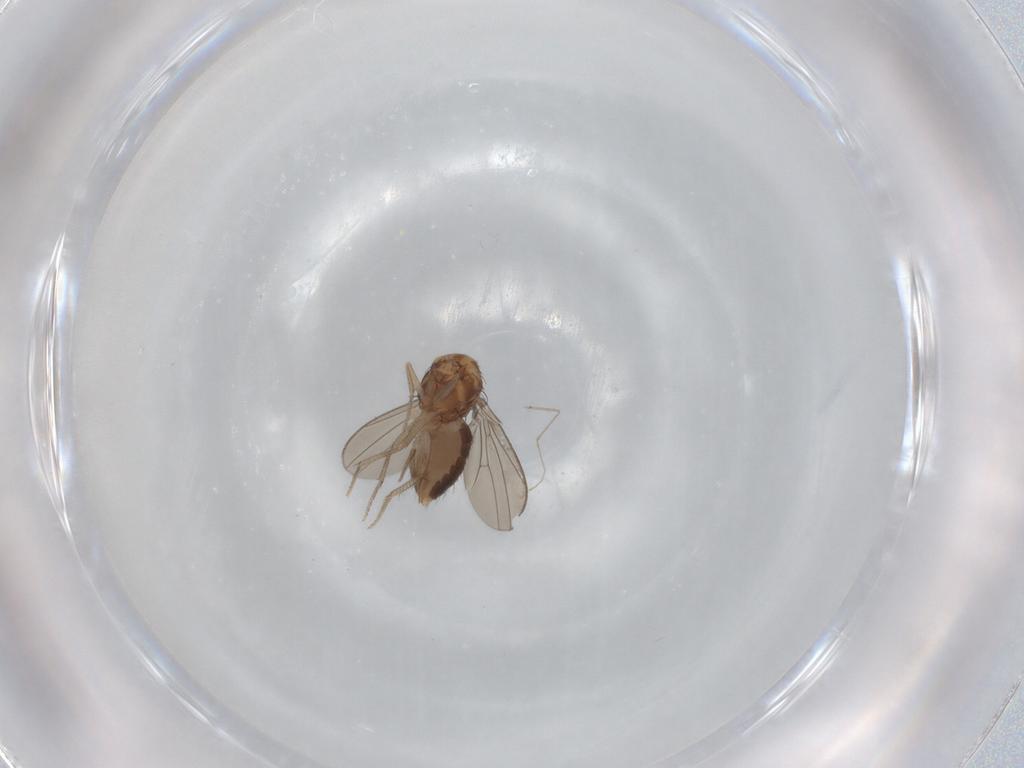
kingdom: Animalia
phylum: Arthropoda
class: Insecta
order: Diptera
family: Drosophilidae
